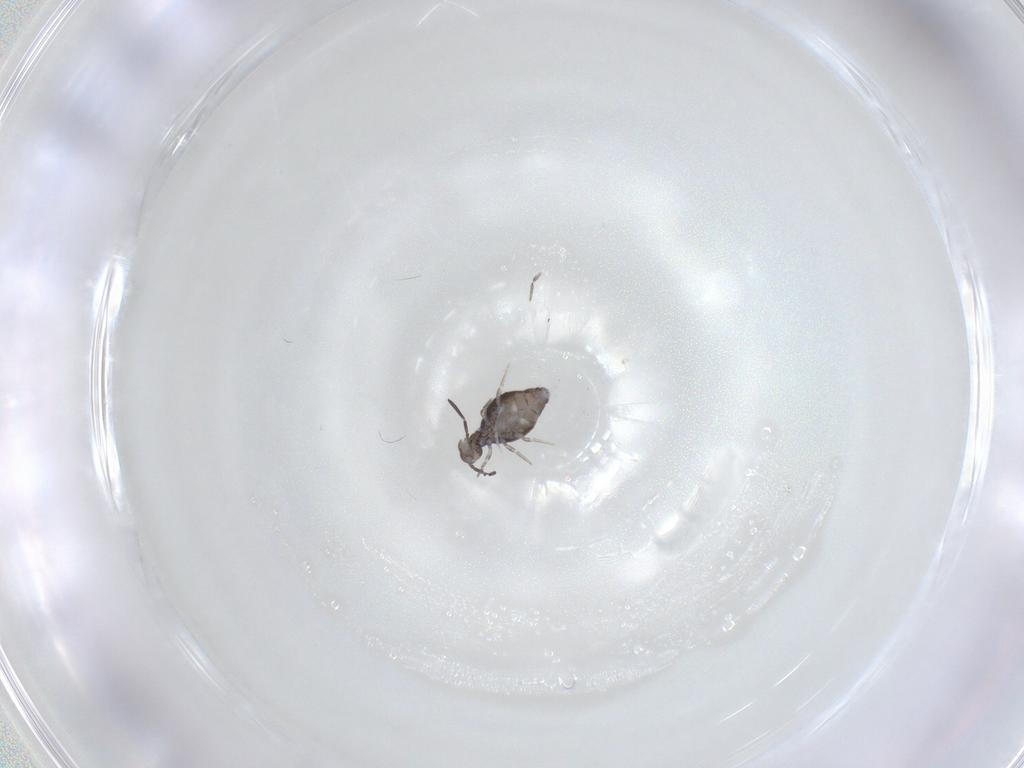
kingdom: Animalia
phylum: Arthropoda
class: Collembola
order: Symphypleona
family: Katiannidae
